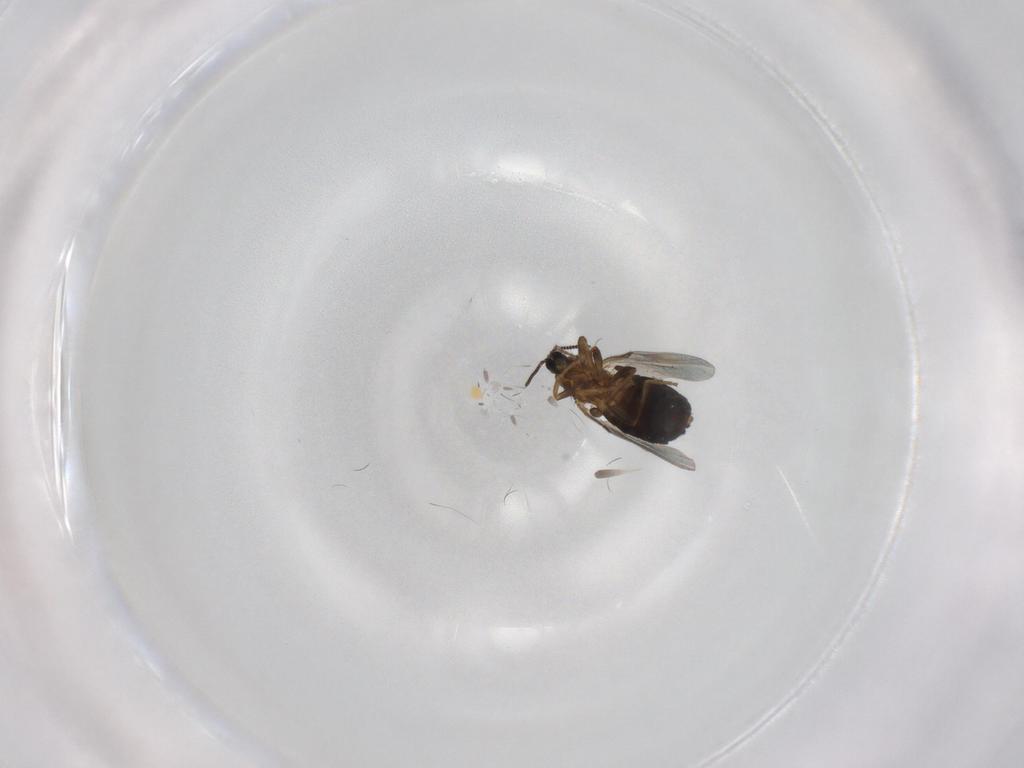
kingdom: Animalia
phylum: Arthropoda
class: Insecta
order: Diptera
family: Scatopsidae
